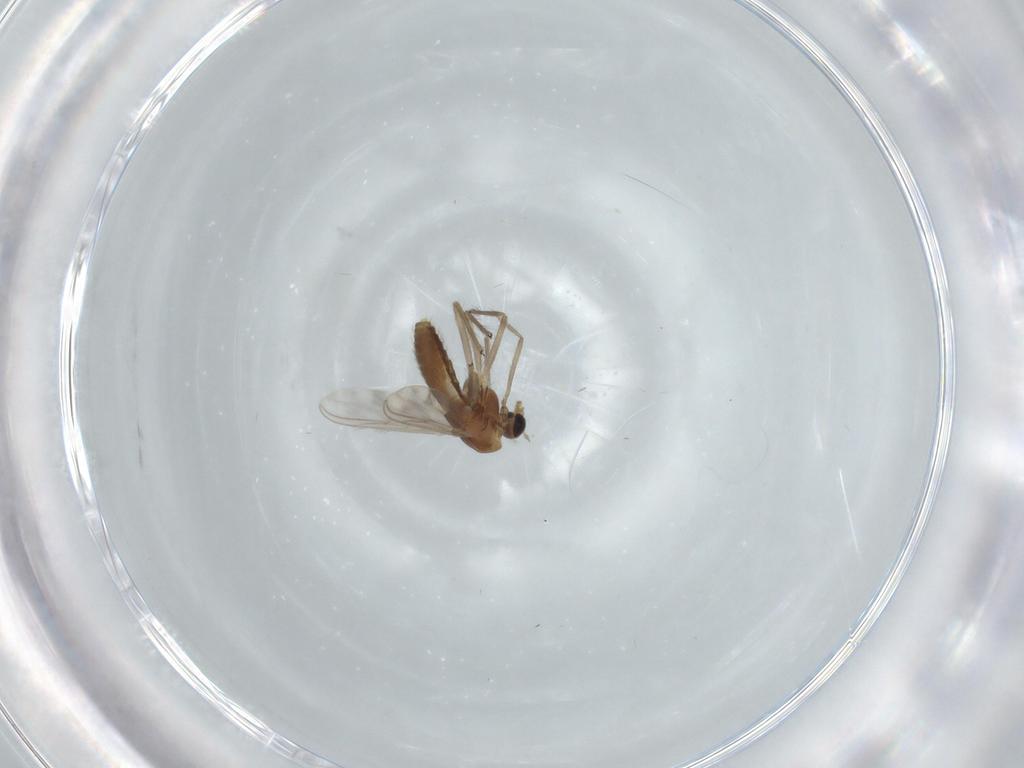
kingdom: Animalia
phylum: Arthropoda
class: Insecta
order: Diptera
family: Chironomidae
